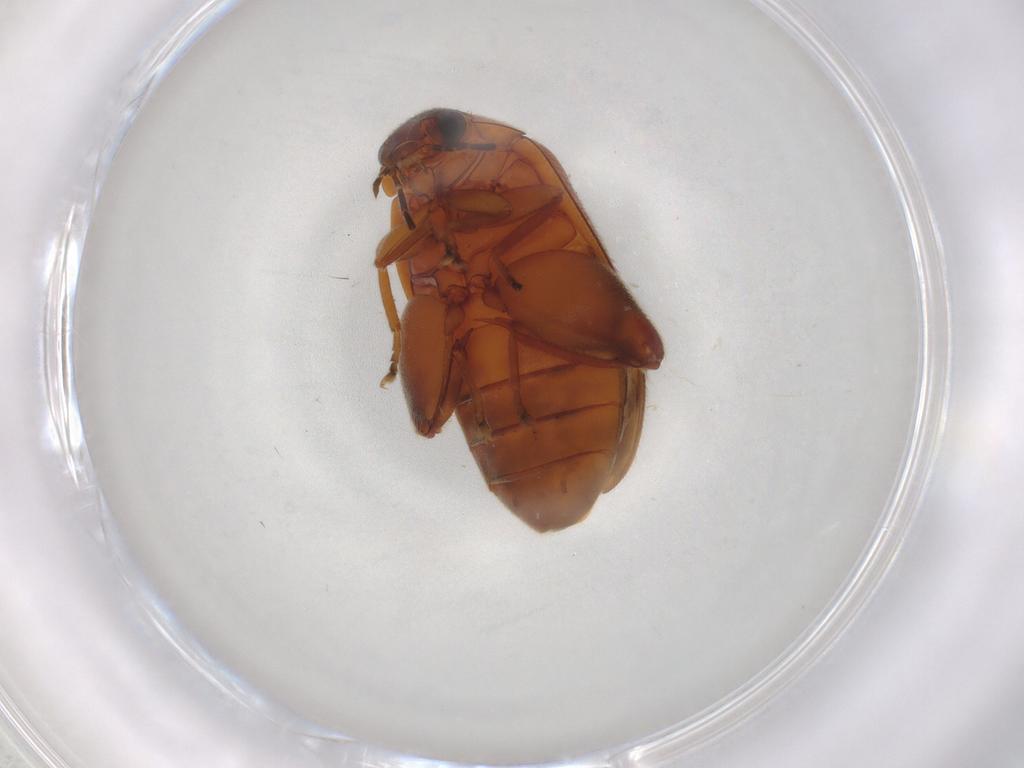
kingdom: Animalia
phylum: Arthropoda
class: Insecta
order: Coleoptera
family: Scirtidae
